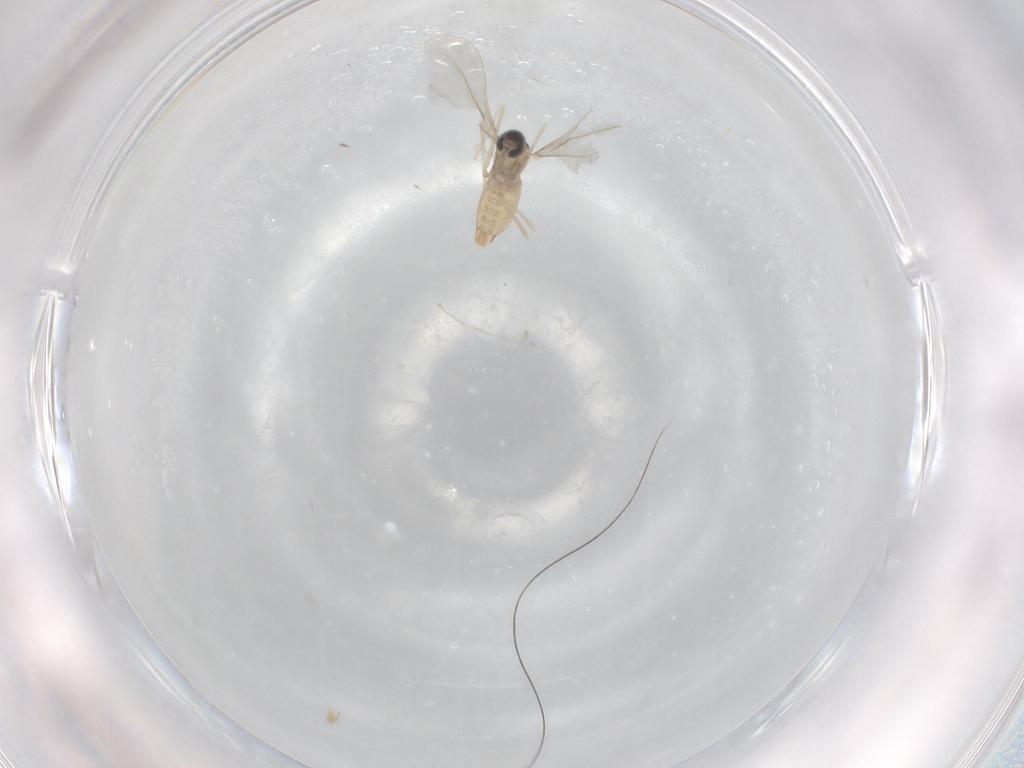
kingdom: Animalia
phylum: Arthropoda
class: Insecta
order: Diptera
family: Cecidomyiidae
